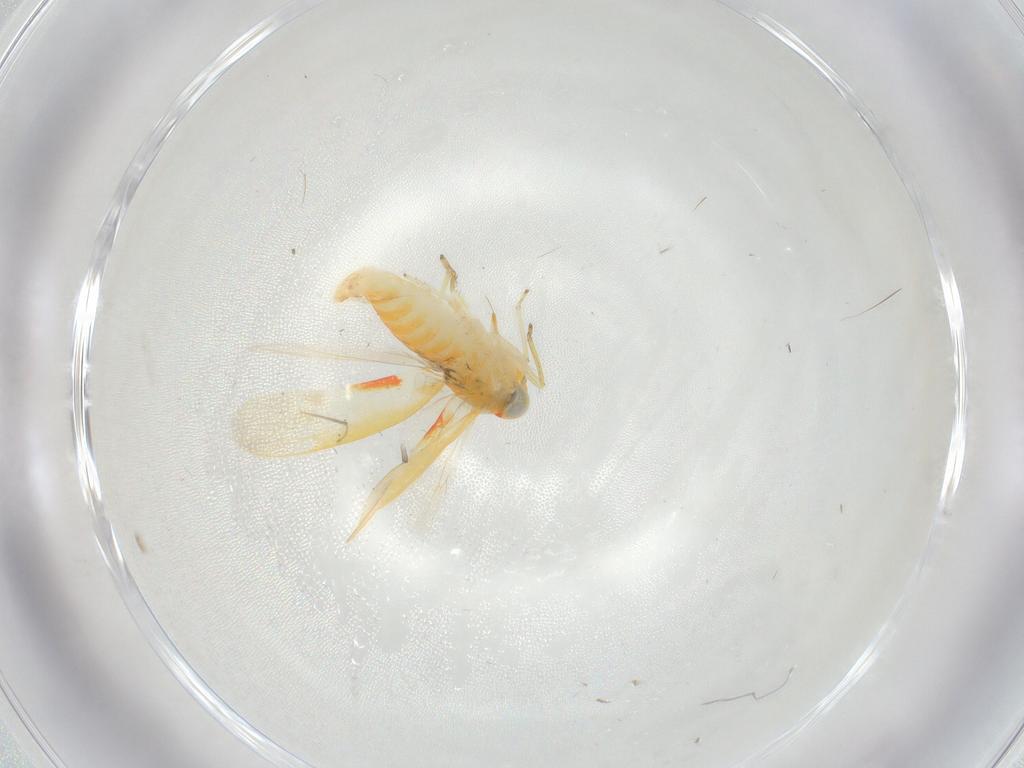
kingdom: Animalia
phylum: Arthropoda
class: Insecta
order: Hemiptera
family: Cicadellidae
